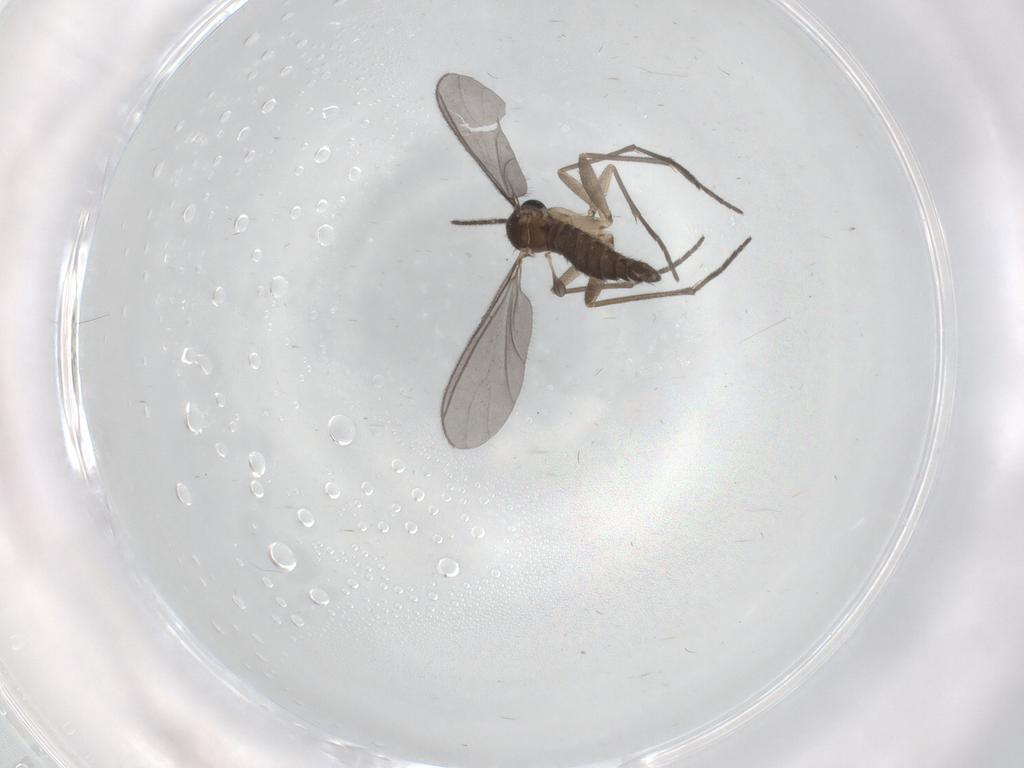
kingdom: Animalia
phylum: Arthropoda
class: Insecta
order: Diptera
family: Sciaridae
